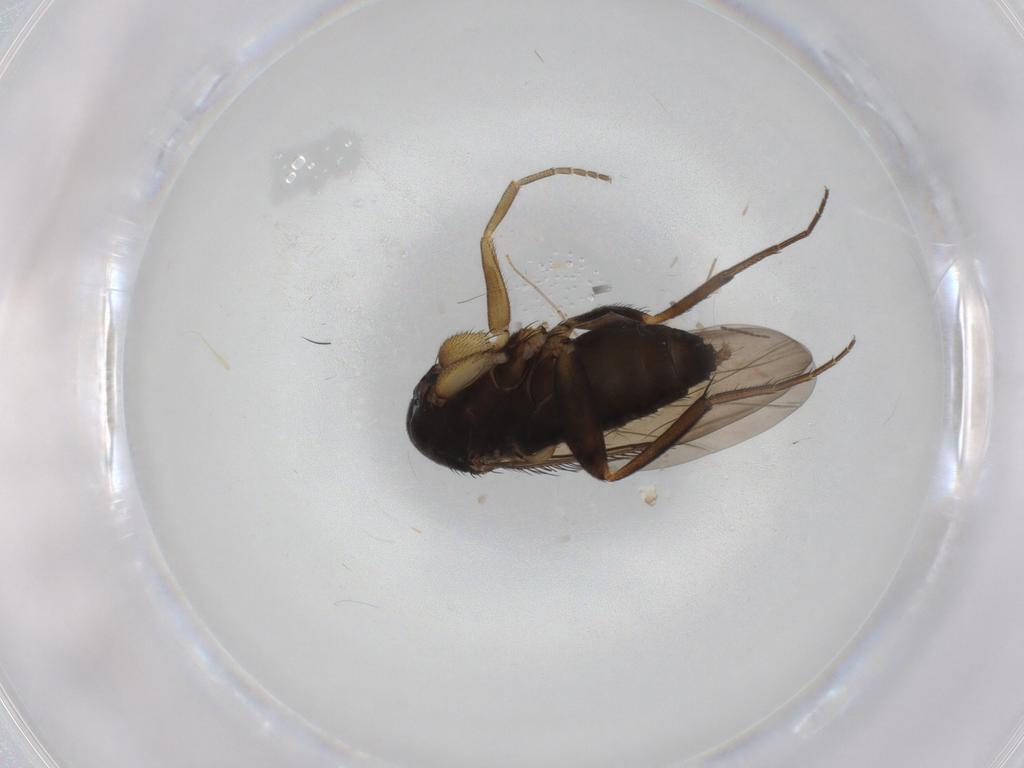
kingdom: Animalia
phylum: Arthropoda
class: Insecta
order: Diptera
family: Phoridae
